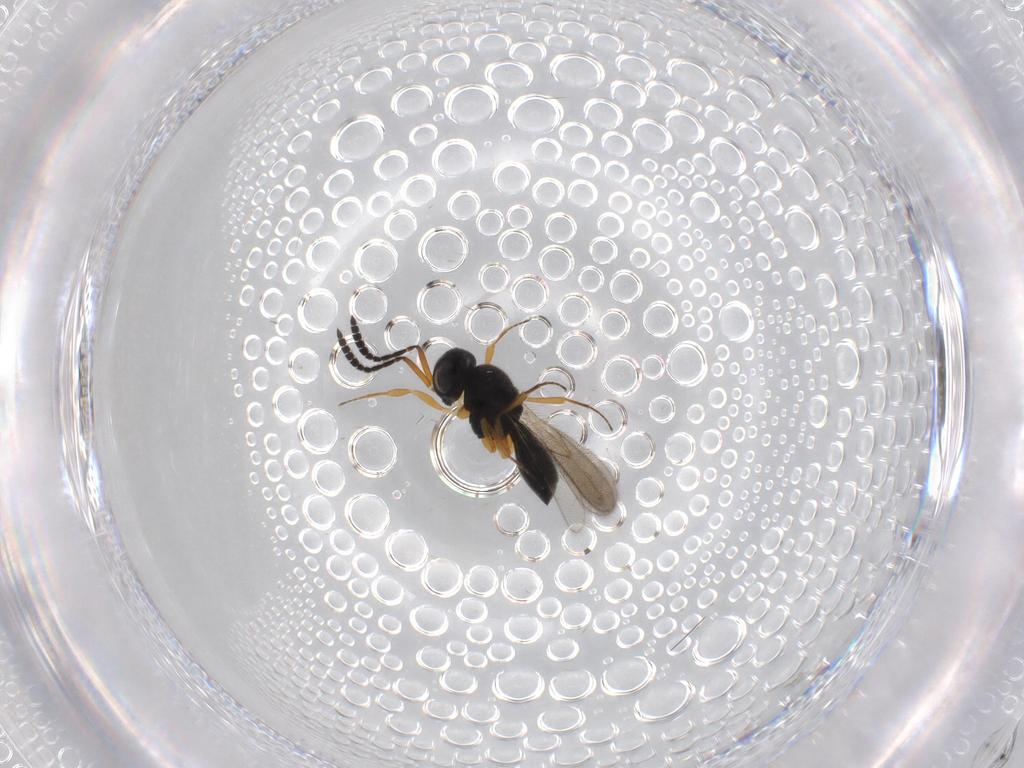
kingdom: Animalia
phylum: Arthropoda
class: Insecta
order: Hymenoptera
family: Scelionidae
